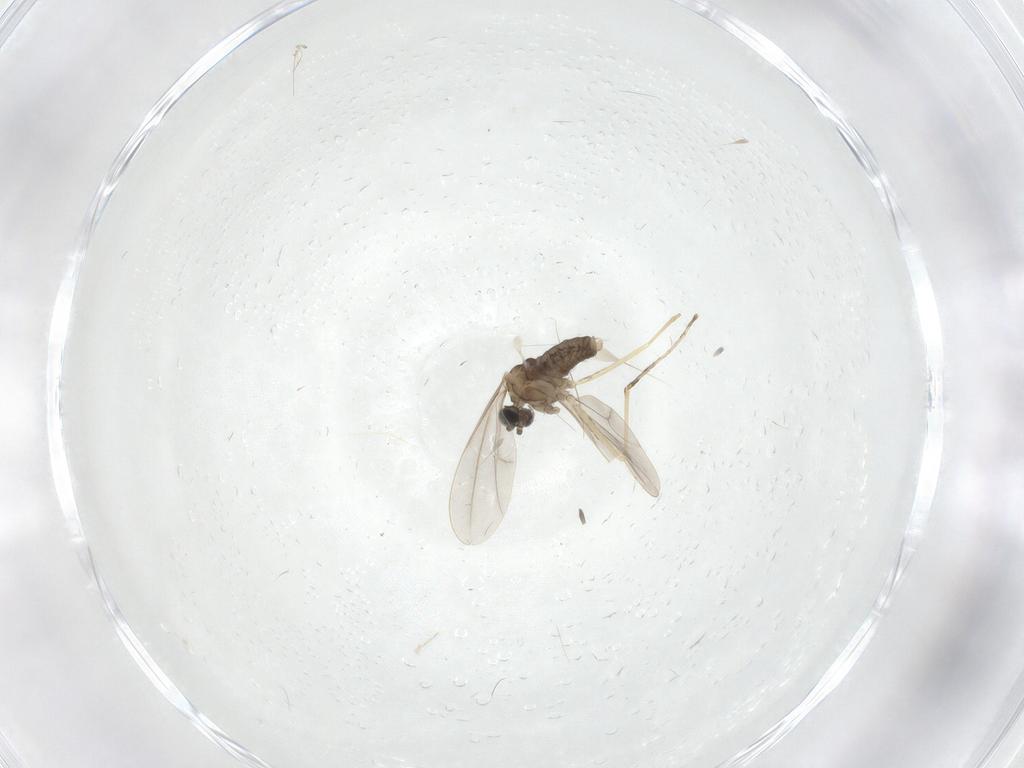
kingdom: Animalia
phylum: Arthropoda
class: Insecta
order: Diptera
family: Cecidomyiidae
